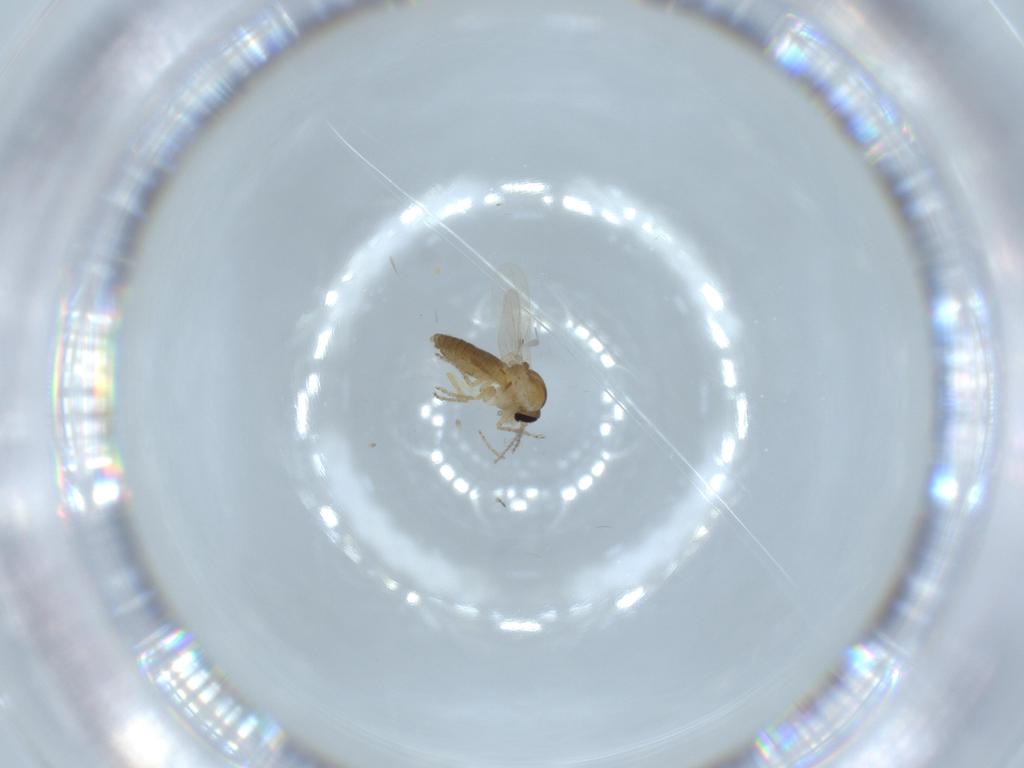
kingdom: Animalia
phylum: Arthropoda
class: Insecta
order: Diptera
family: Ceratopogonidae
